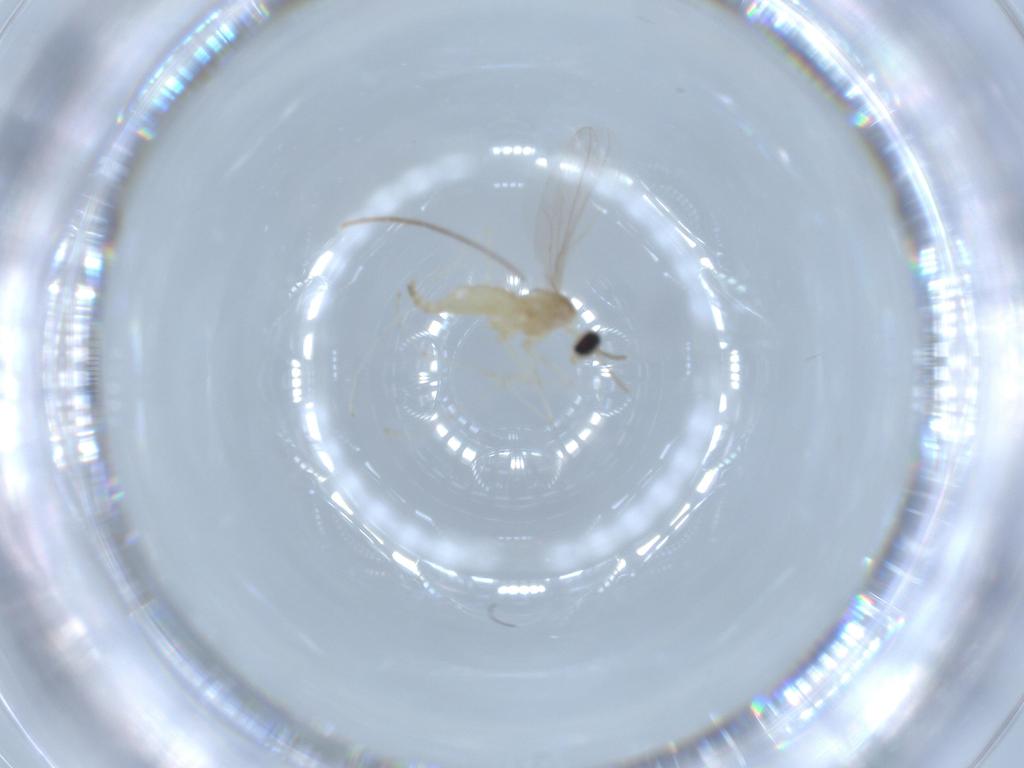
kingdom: Animalia
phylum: Arthropoda
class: Insecta
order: Diptera
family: Cecidomyiidae
